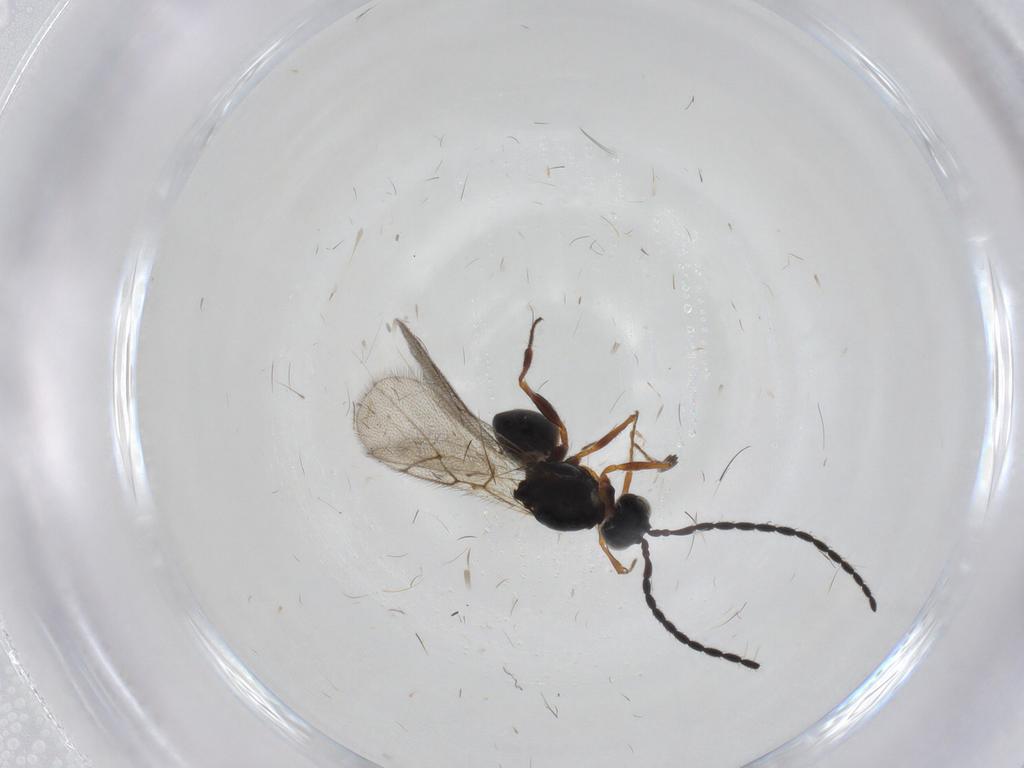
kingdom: Animalia
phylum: Arthropoda
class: Insecta
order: Hymenoptera
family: Figitidae
